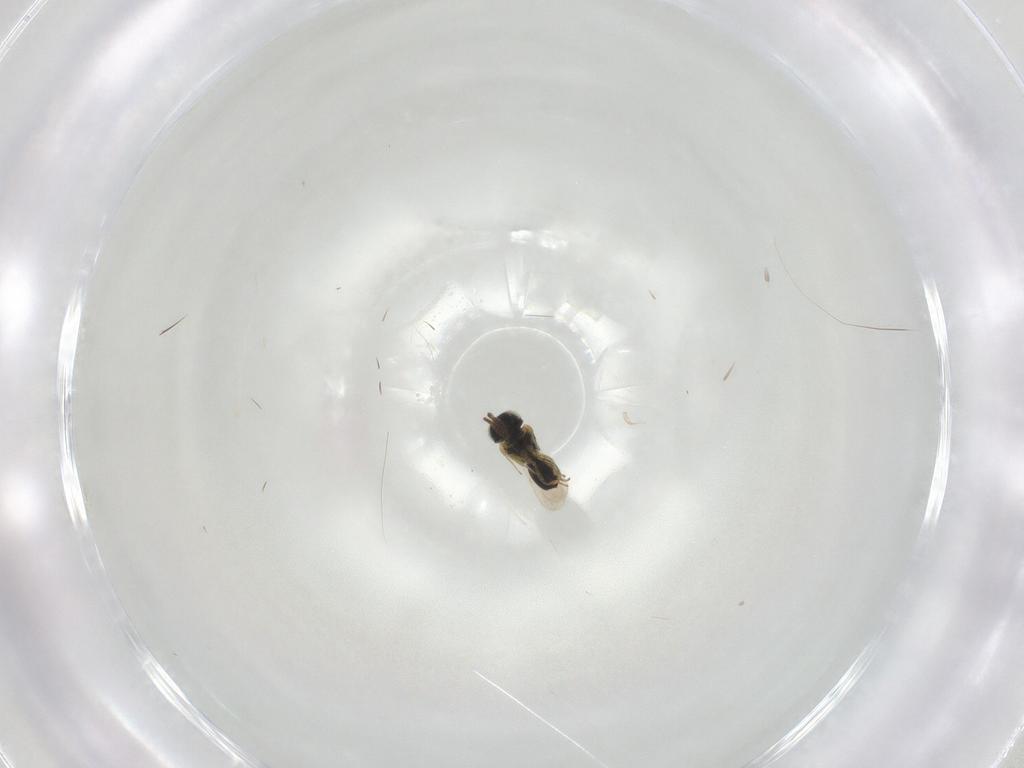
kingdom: Animalia
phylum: Arthropoda
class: Insecta
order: Hymenoptera
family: Scelionidae
